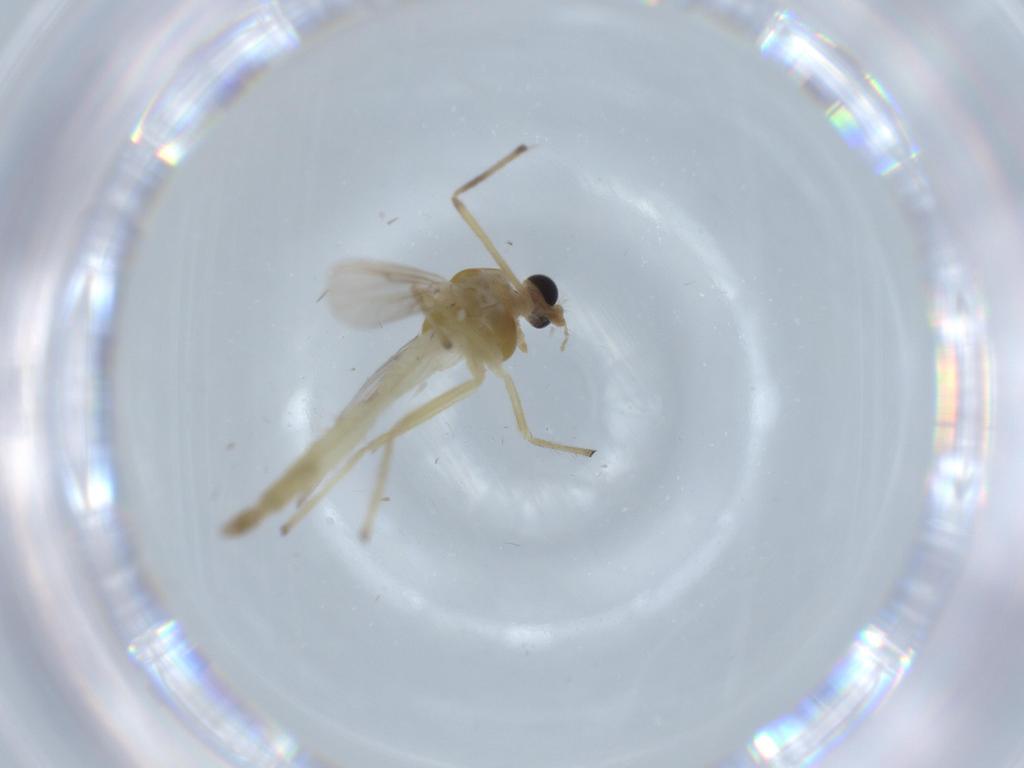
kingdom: Animalia
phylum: Arthropoda
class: Insecta
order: Diptera
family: Chironomidae
